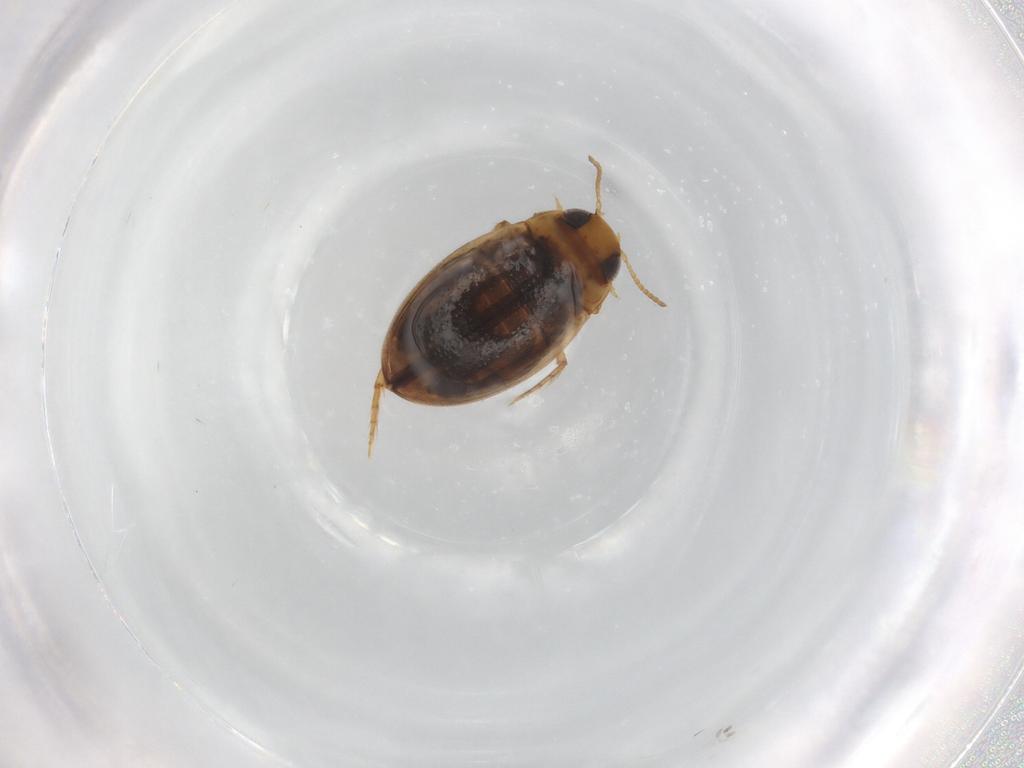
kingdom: Animalia
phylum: Arthropoda
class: Insecta
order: Coleoptera
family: Dytiscidae
